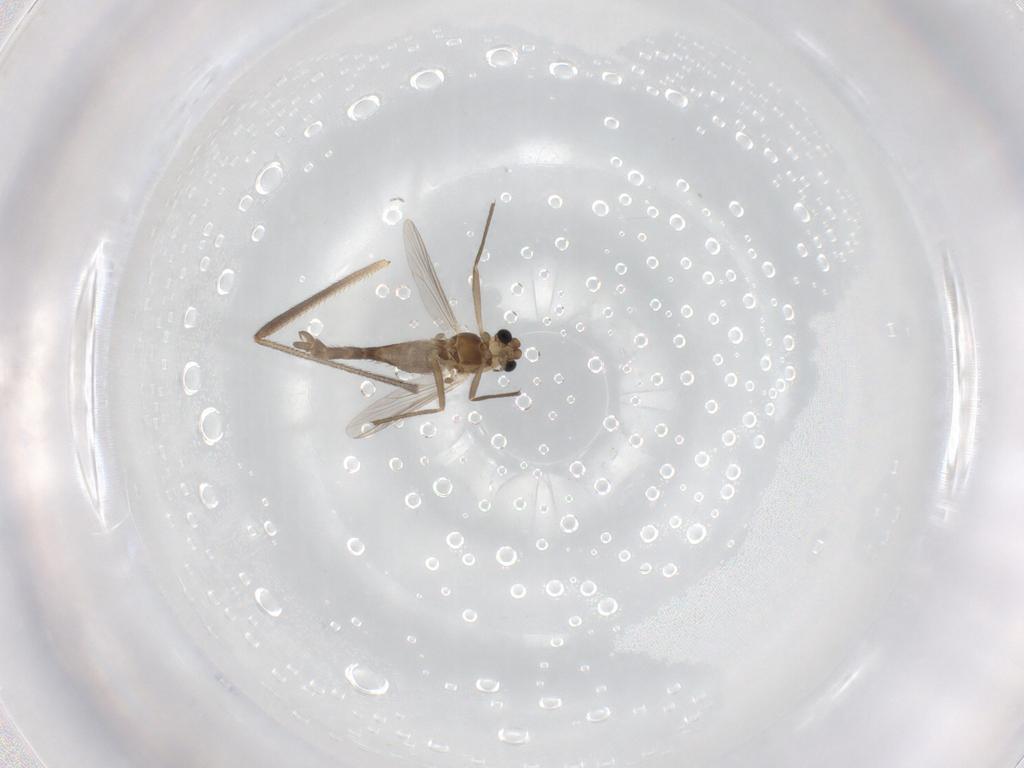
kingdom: Animalia
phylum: Arthropoda
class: Insecta
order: Diptera
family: Chironomidae
